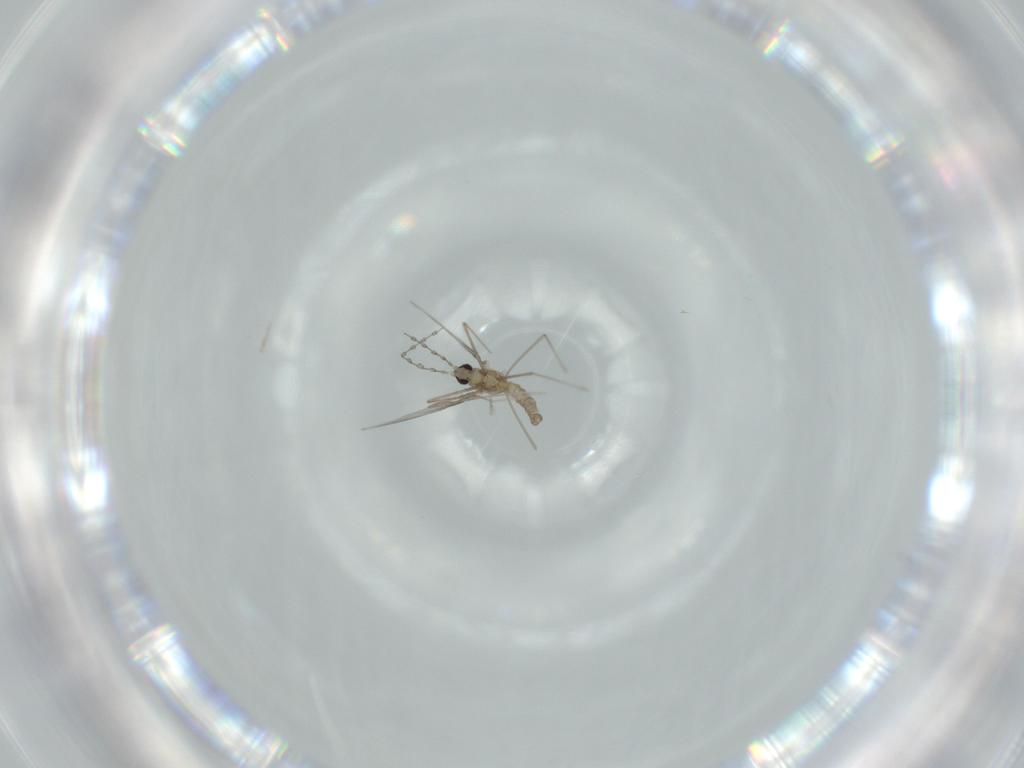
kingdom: Animalia
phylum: Arthropoda
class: Insecta
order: Diptera
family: Cecidomyiidae
